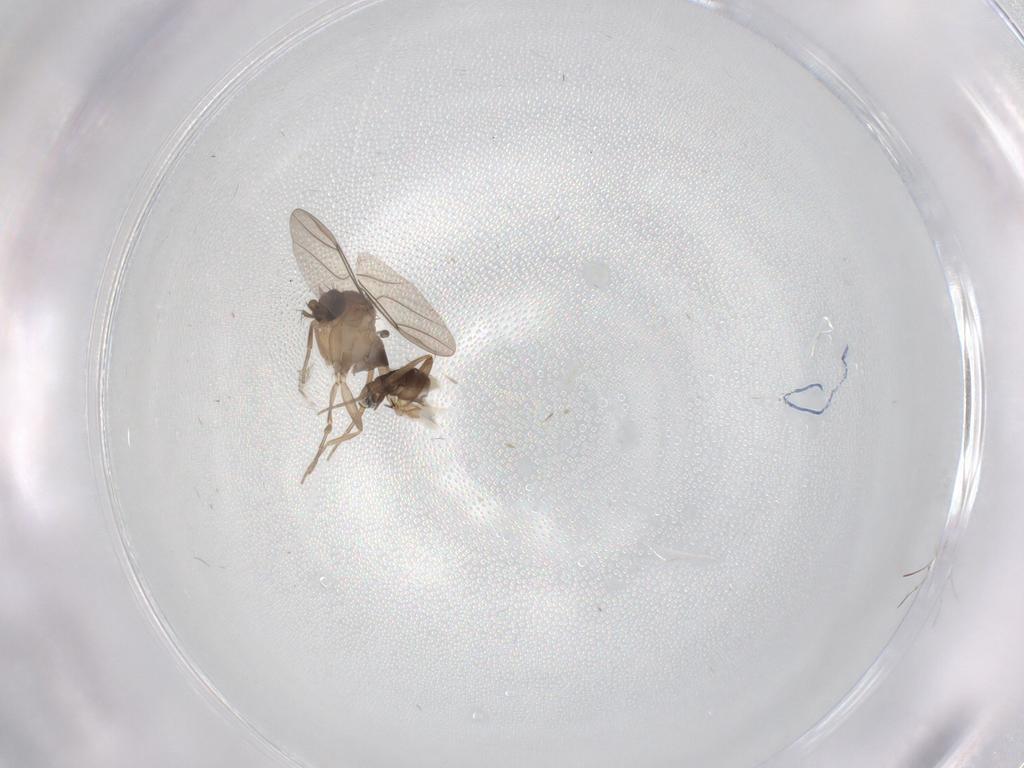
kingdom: Animalia
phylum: Arthropoda
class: Insecta
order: Diptera
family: Phoridae
